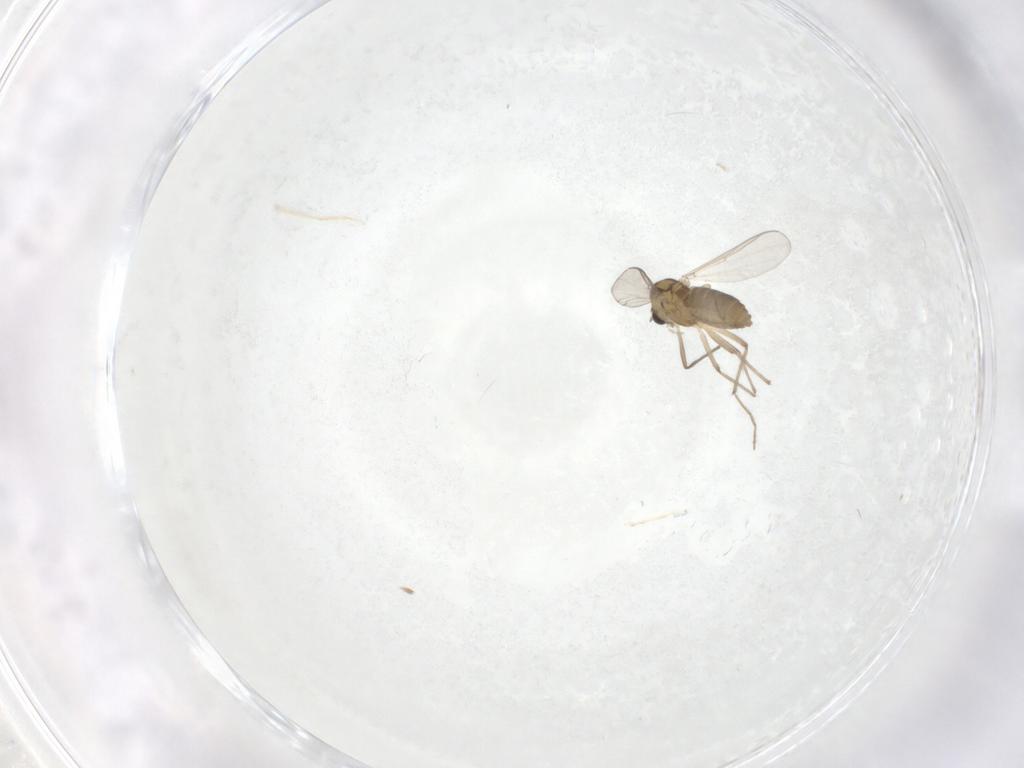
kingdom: Animalia
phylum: Arthropoda
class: Insecta
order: Diptera
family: Chironomidae
